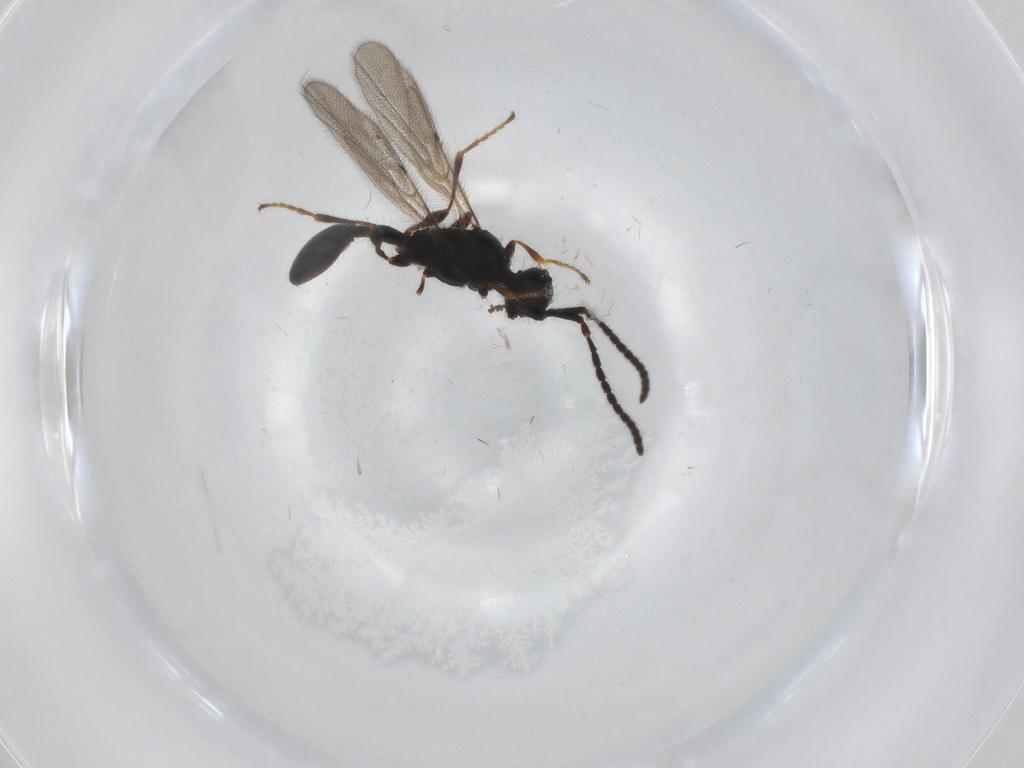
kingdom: Animalia
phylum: Arthropoda
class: Insecta
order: Hymenoptera
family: Diapriidae
